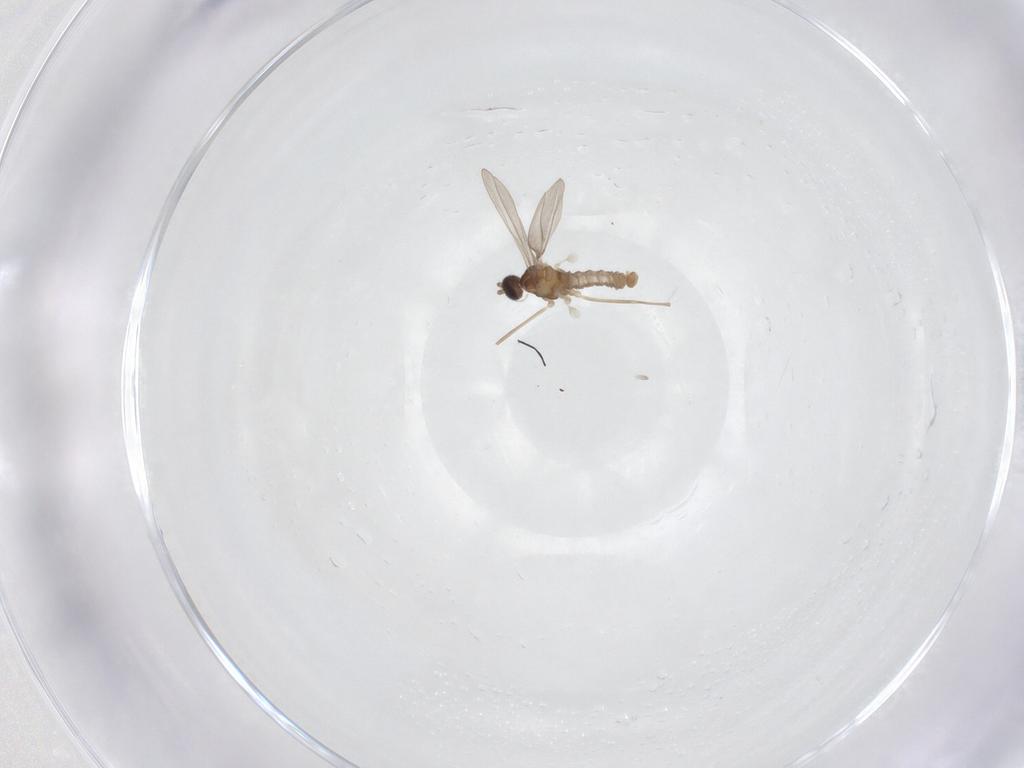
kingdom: Animalia
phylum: Arthropoda
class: Insecta
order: Diptera
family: Cecidomyiidae
